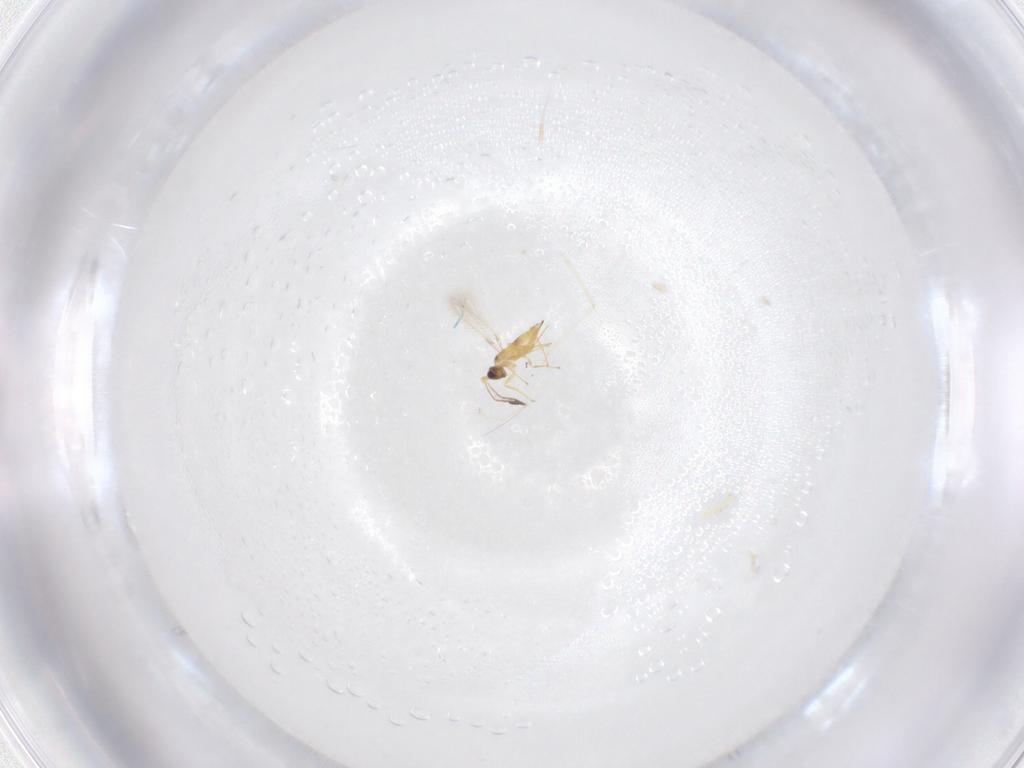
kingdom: Animalia
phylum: Arthropoda
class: Insecta
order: Hymenoptera
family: Mymaridae
